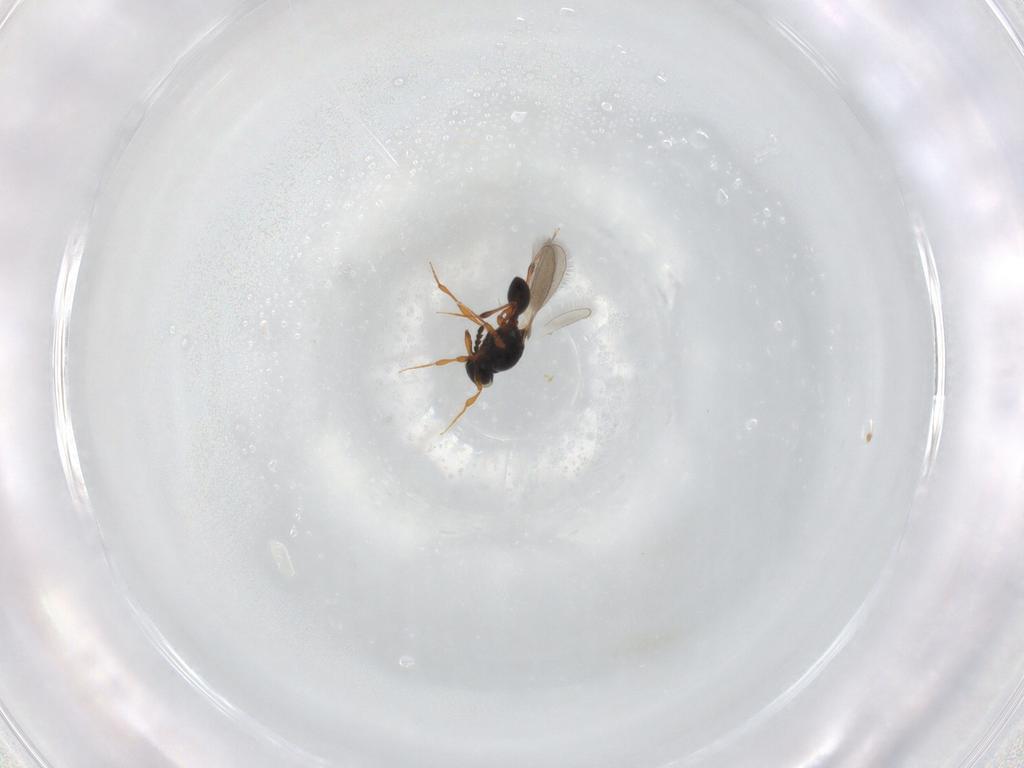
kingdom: Animalia
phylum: Arthropoda
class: Insecta
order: Hymenoptera
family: Platygastridae
